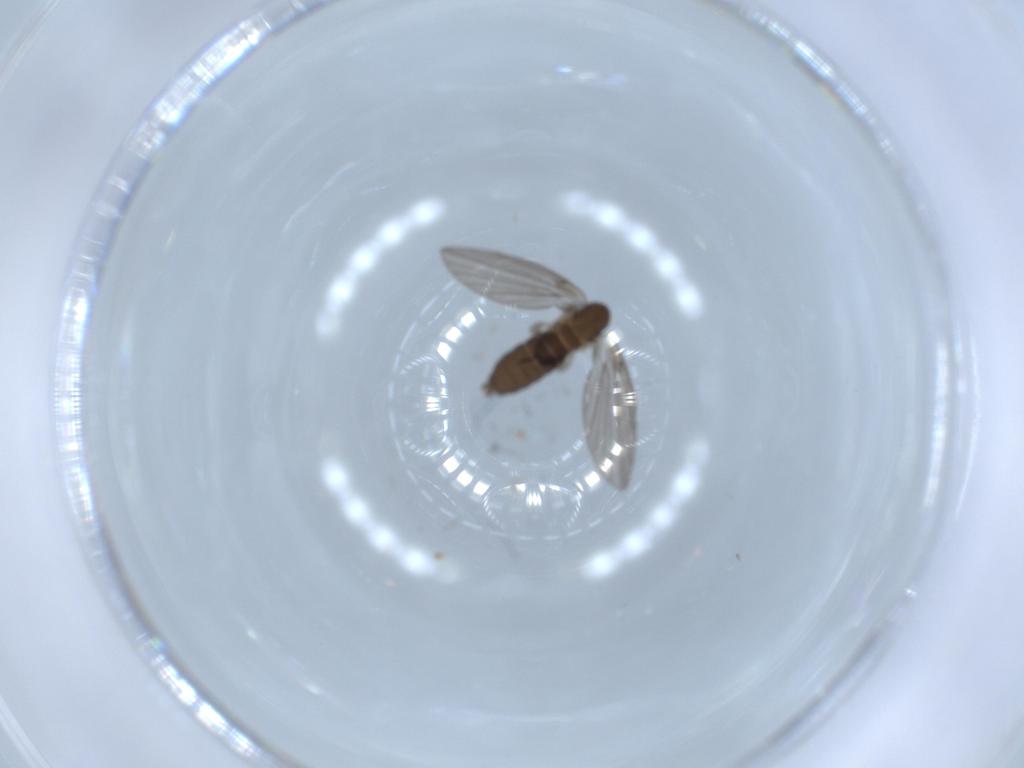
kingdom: Animalia
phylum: Arthropoda
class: Insecta
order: Diptera
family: Psychodidae
